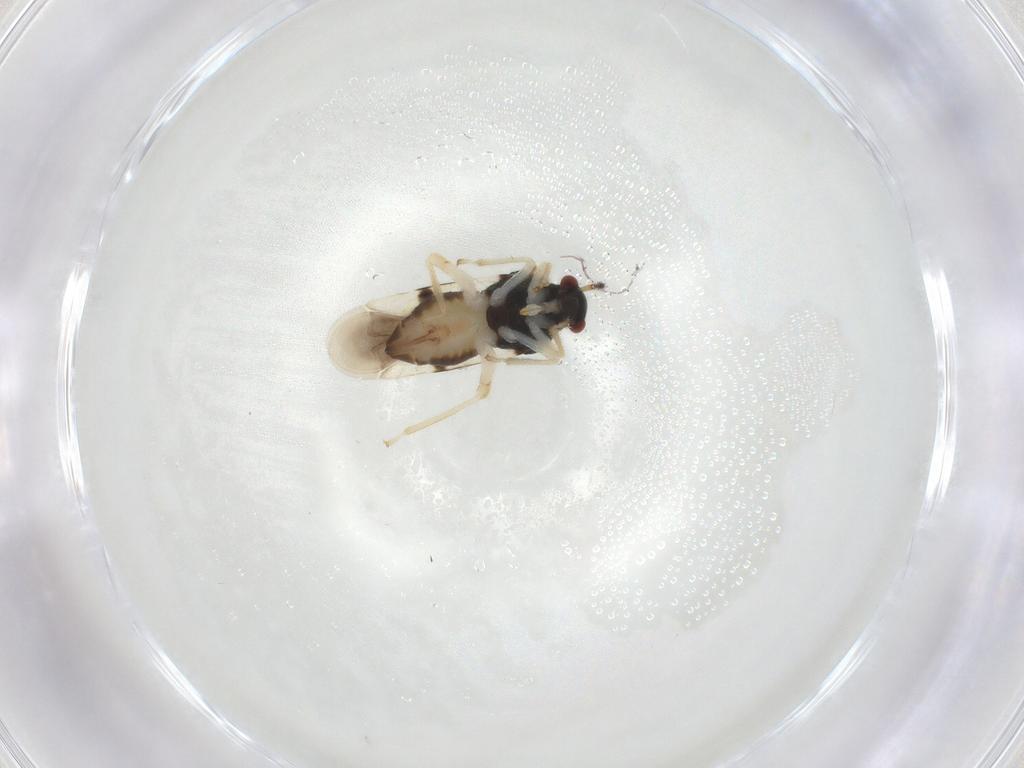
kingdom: Animalia
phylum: Arthropoda
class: Insecta
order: Hemiptera
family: Miridae
